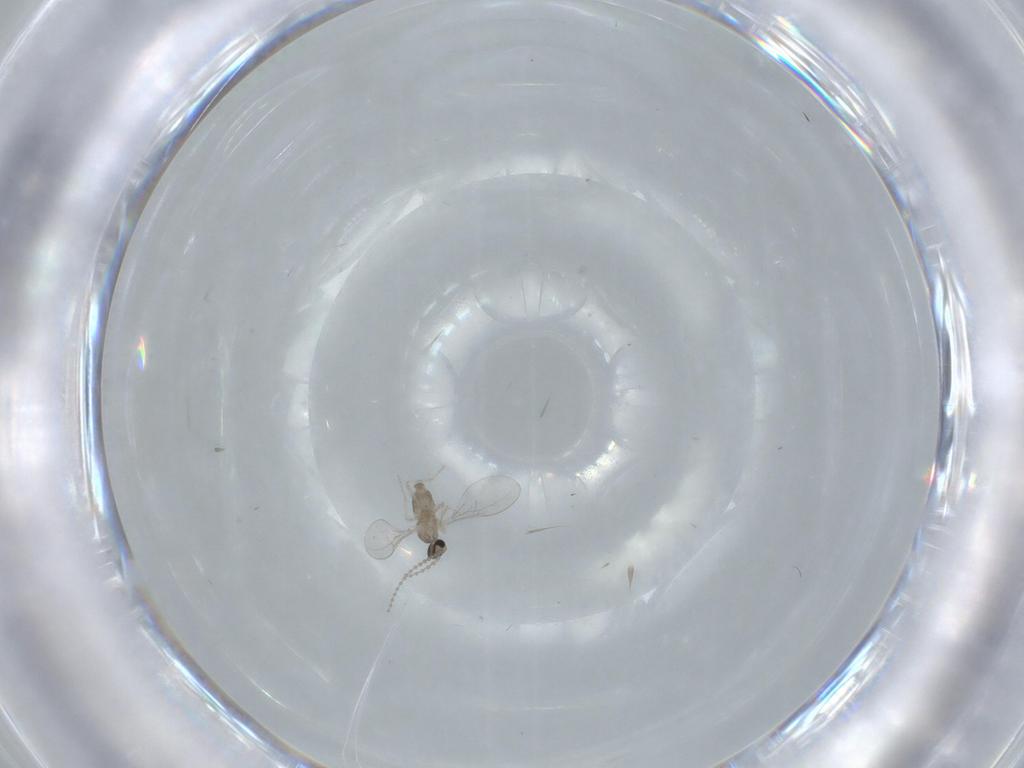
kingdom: Animalia
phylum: Arthropoda
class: Insecta
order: Diptera
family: Cecidomyiidae
